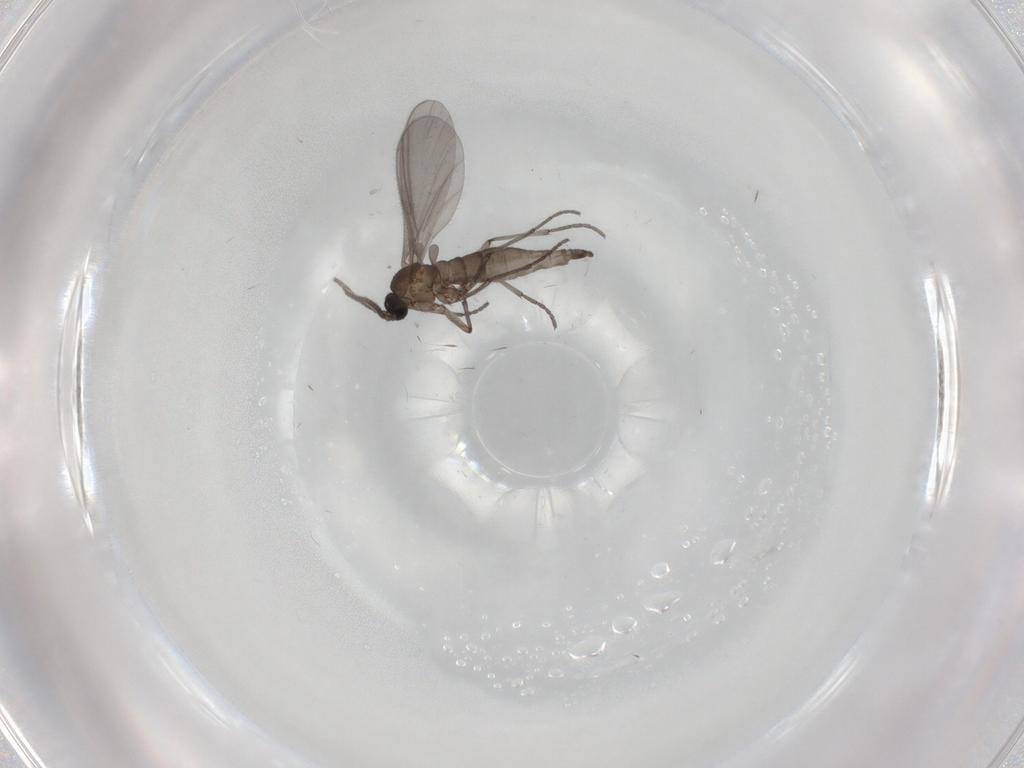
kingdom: Animalia
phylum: Arthropoda
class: Insecta
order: Diptera
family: Sciaridae
